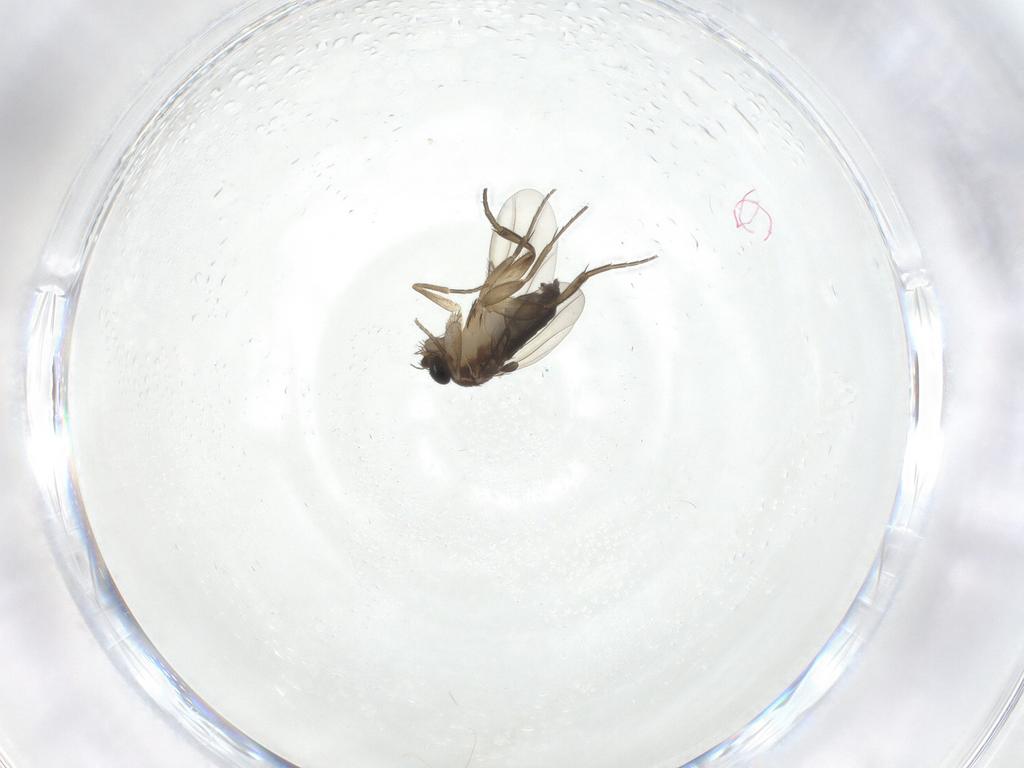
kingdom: Animalia
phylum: Arthropoda
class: Insecta
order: Diptera
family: Phoridae
